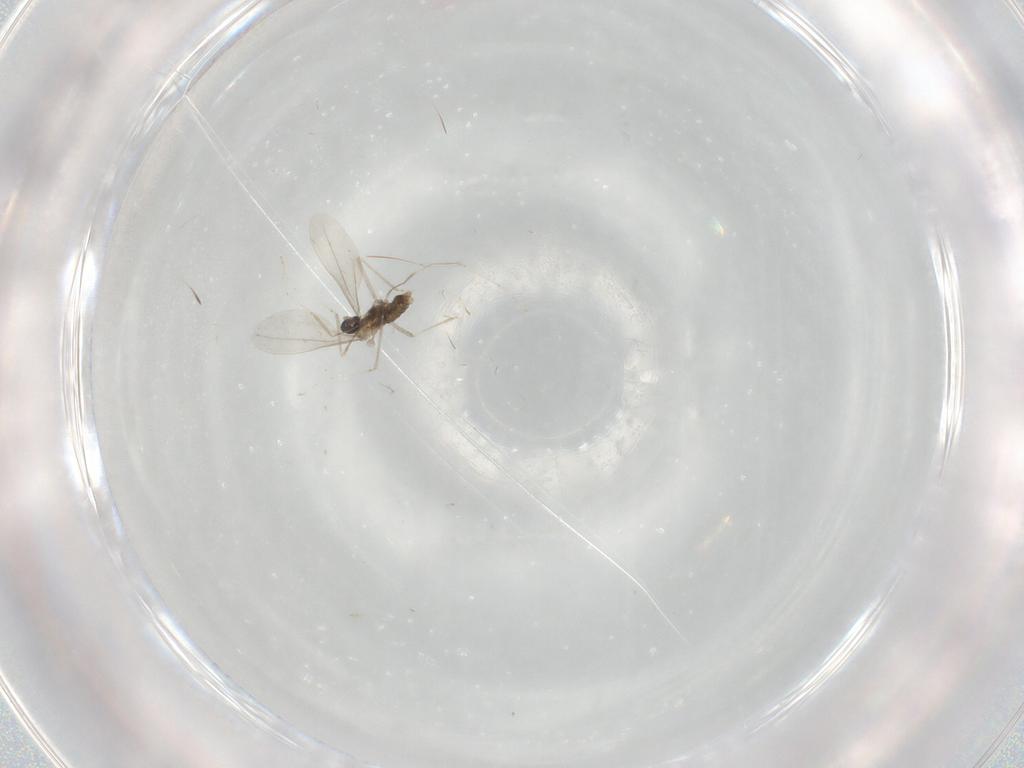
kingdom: Animalia
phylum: Arthropoda
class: Insecta
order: Diptera
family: Cecidomyiidae
